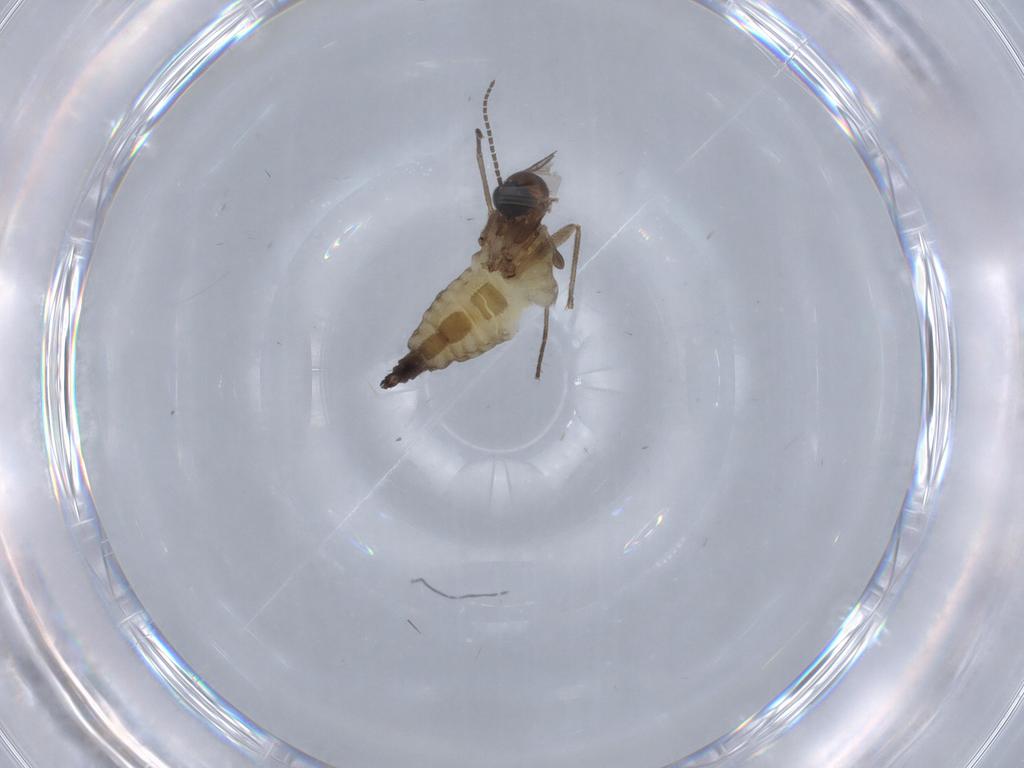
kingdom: Animalia
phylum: Arthropoda
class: Insecta
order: Diptera
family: Sciaridae
